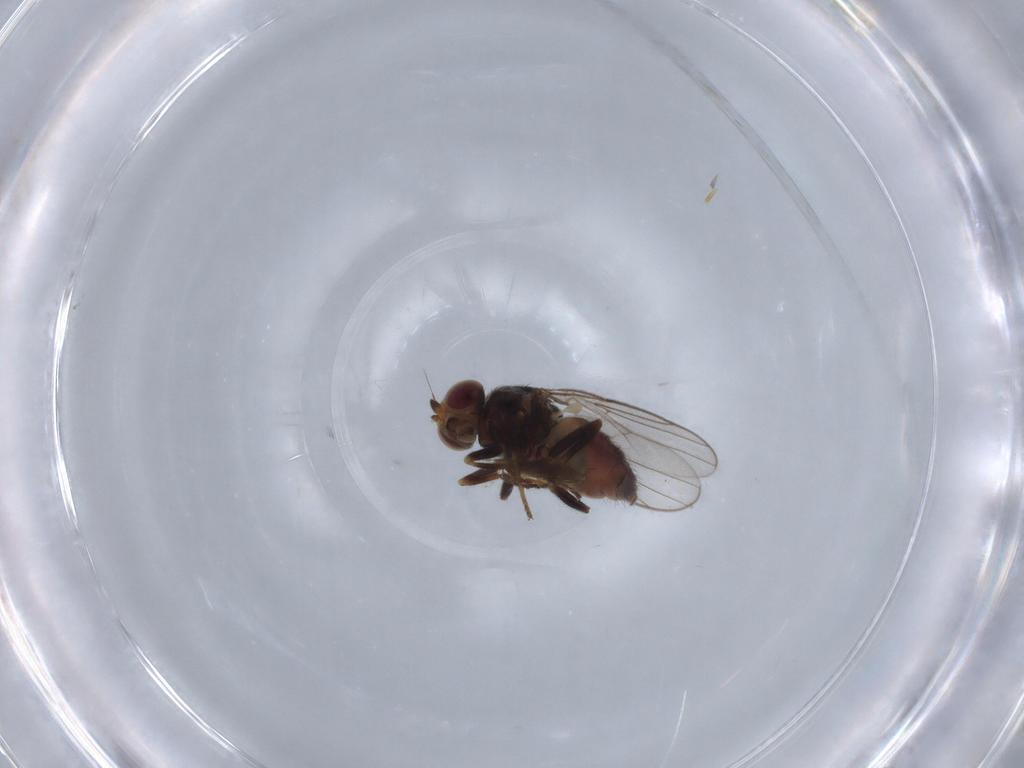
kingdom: Animalia
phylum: Arthropoda
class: Insecta
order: Diptera
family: Chloropidae
